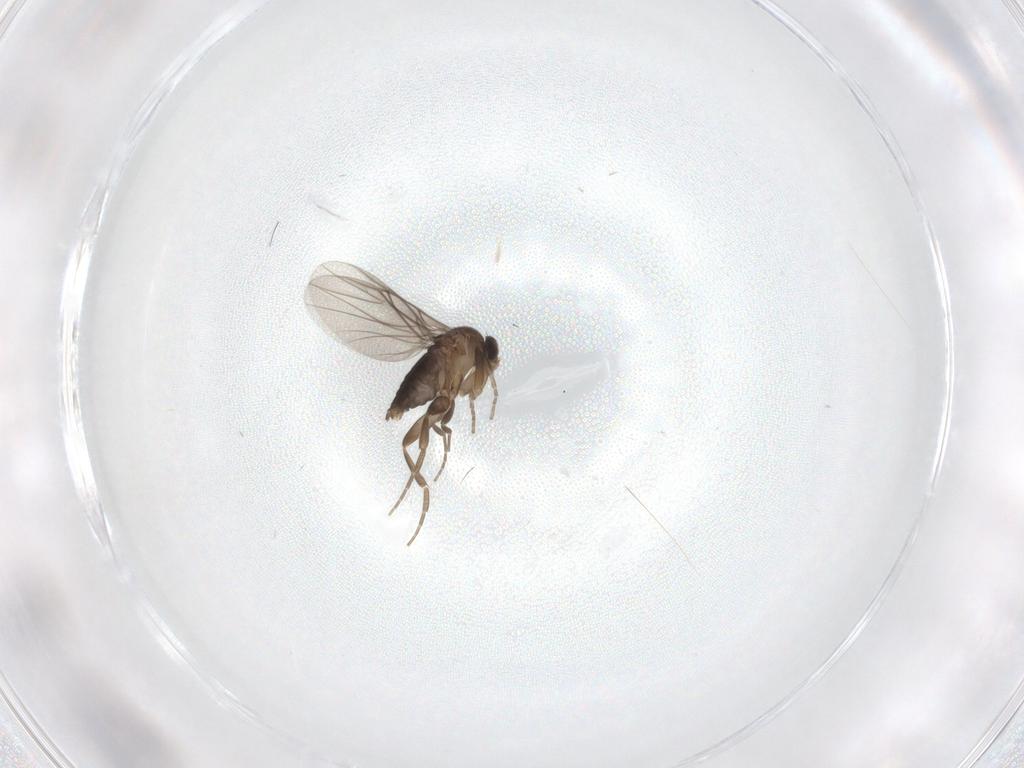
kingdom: Animalia
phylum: Arthropoda
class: Insecta
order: Diptera
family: Phoridae
